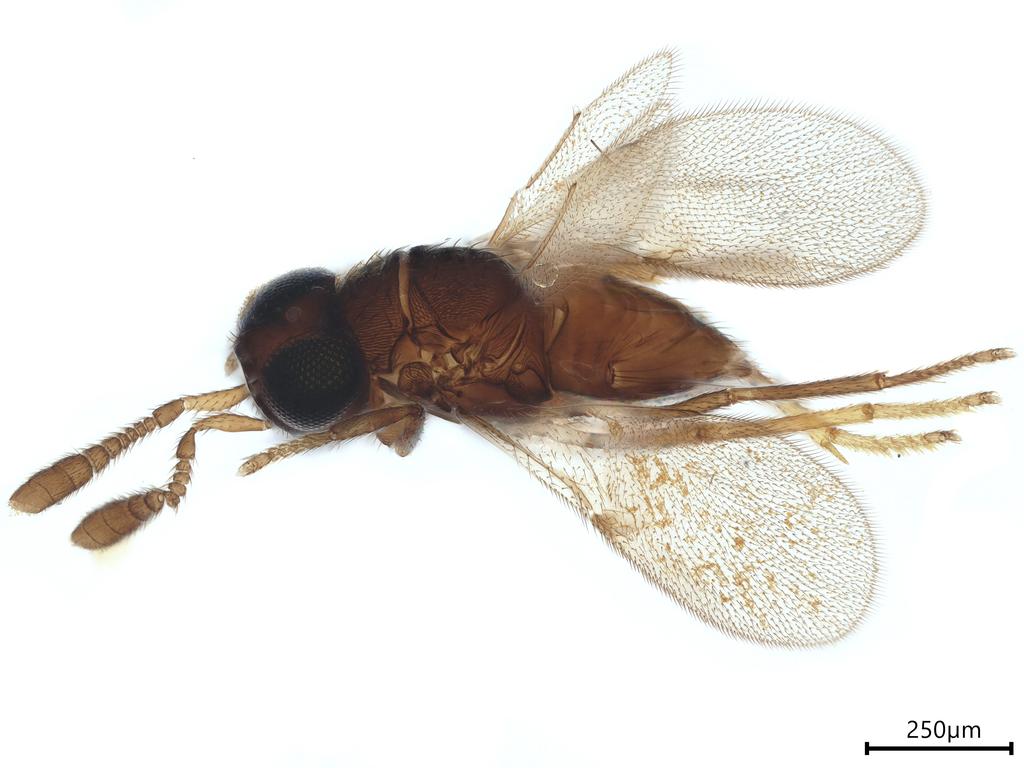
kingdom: Animalia
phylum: Arthropoda
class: Insecta
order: Hymenoptera
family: Encyrtidae
